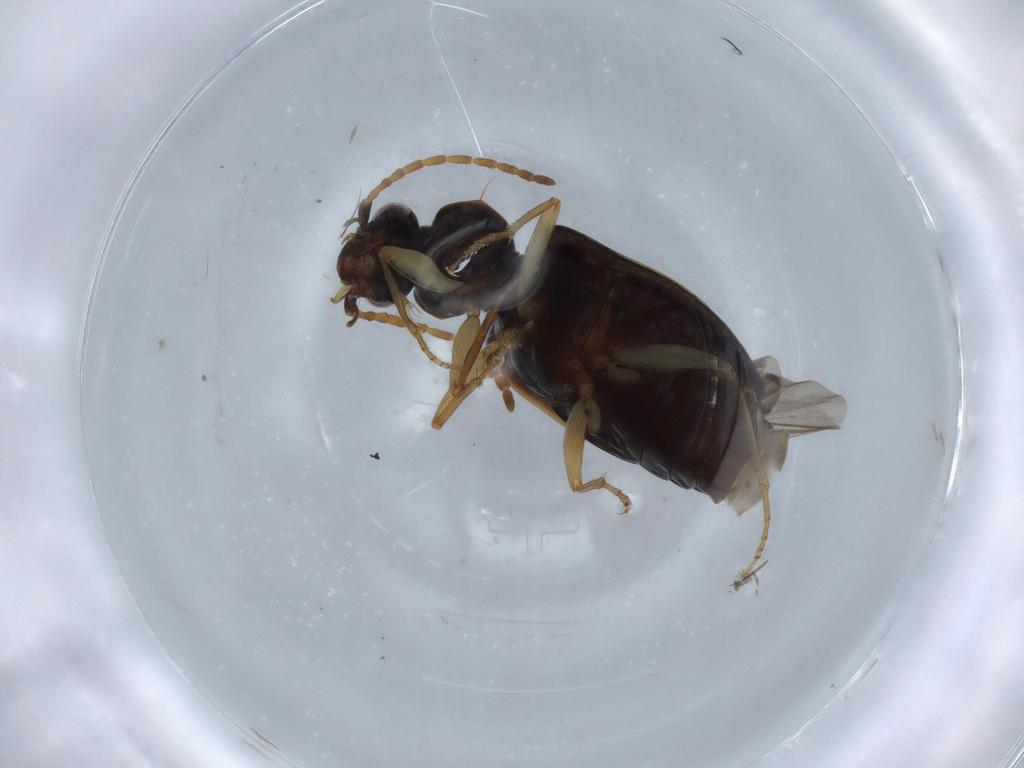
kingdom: Animalia
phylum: Arthropoda
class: Insecta
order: Coleoptera
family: Carabidae
